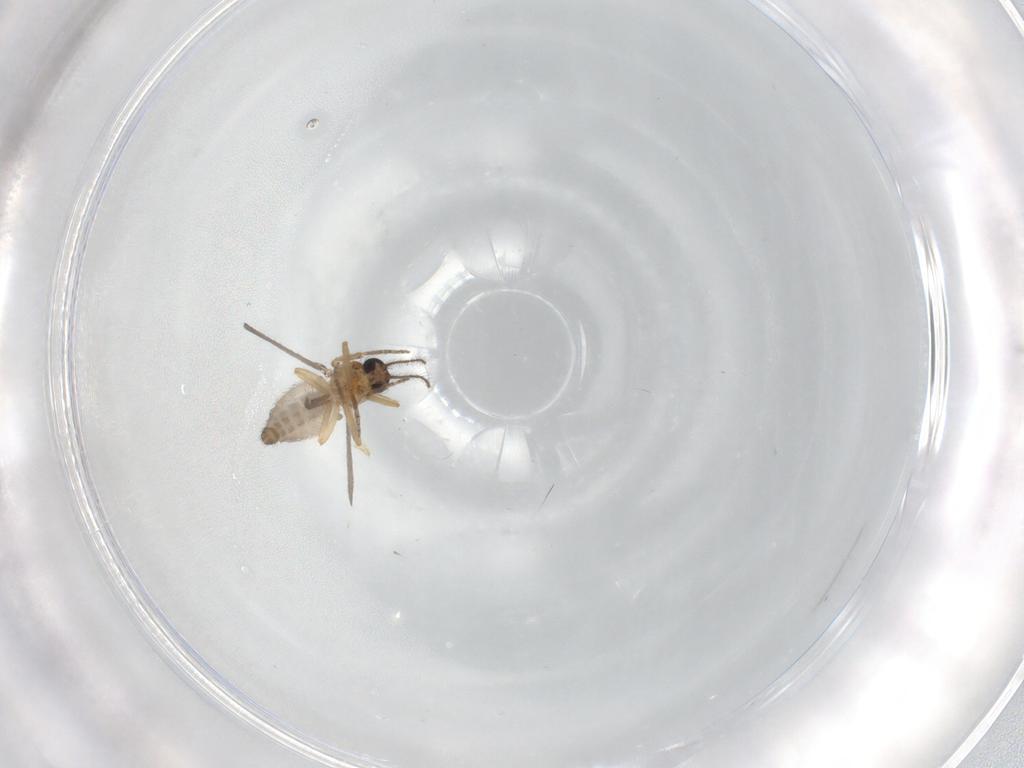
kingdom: Animalia
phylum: Arthropoda
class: Insecta
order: Diptera
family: Ceratopogonidae
